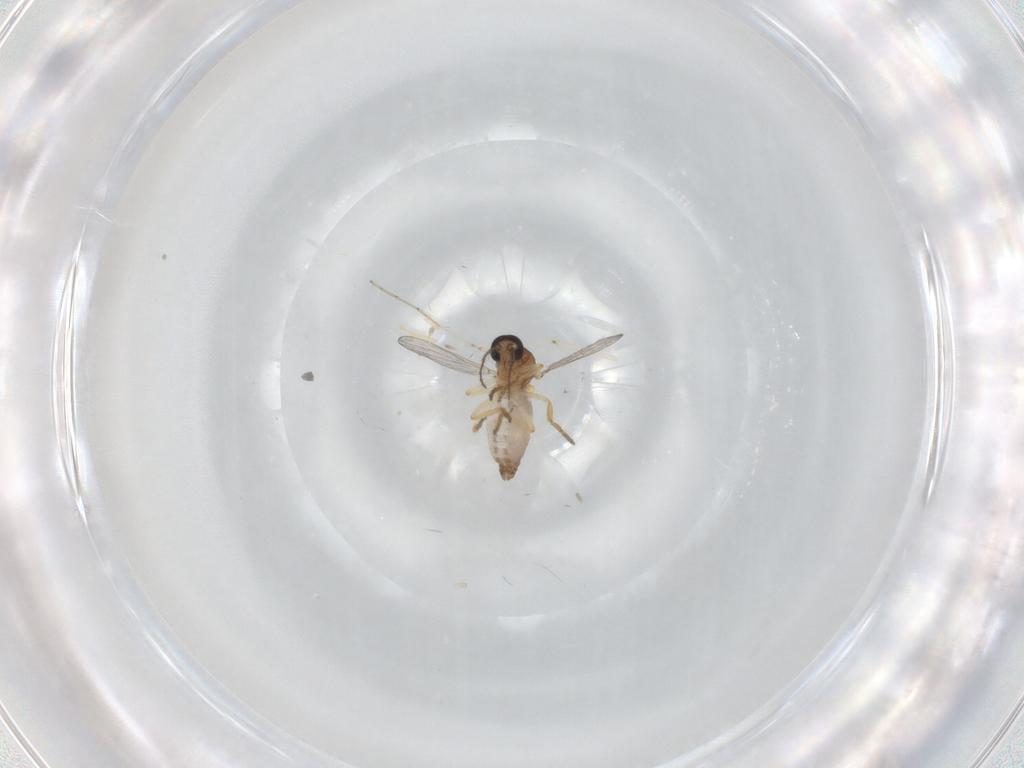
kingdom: Animalia
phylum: Arthropoda
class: Insecta
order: Diptera
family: Ceratopogonidae
